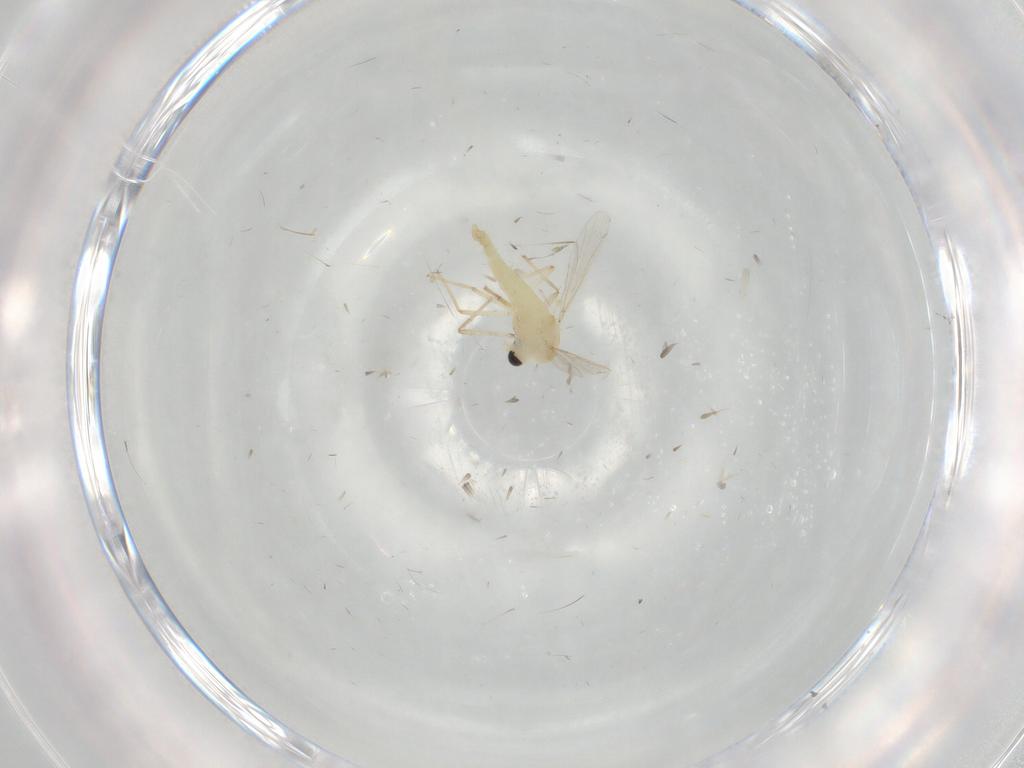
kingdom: Animalia
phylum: Arthropoda
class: Insecta
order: Diptera
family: Chironomidae
